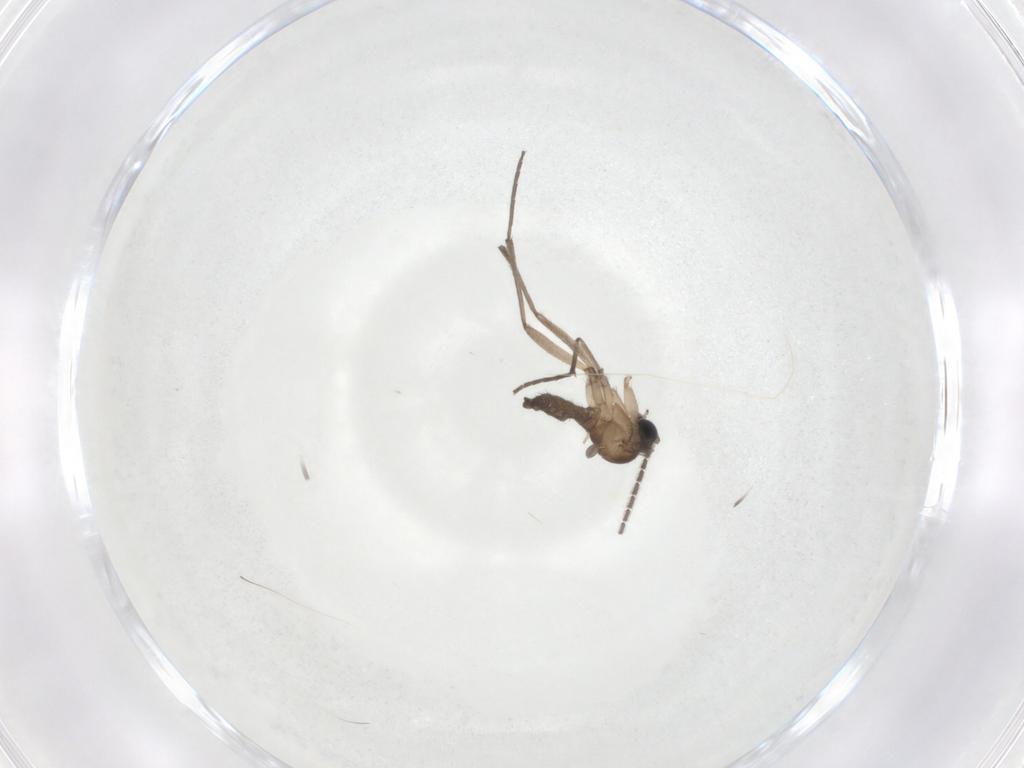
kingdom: Animalia
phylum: Arthropoda
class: Insecta
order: Diptera
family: Sciaridae
